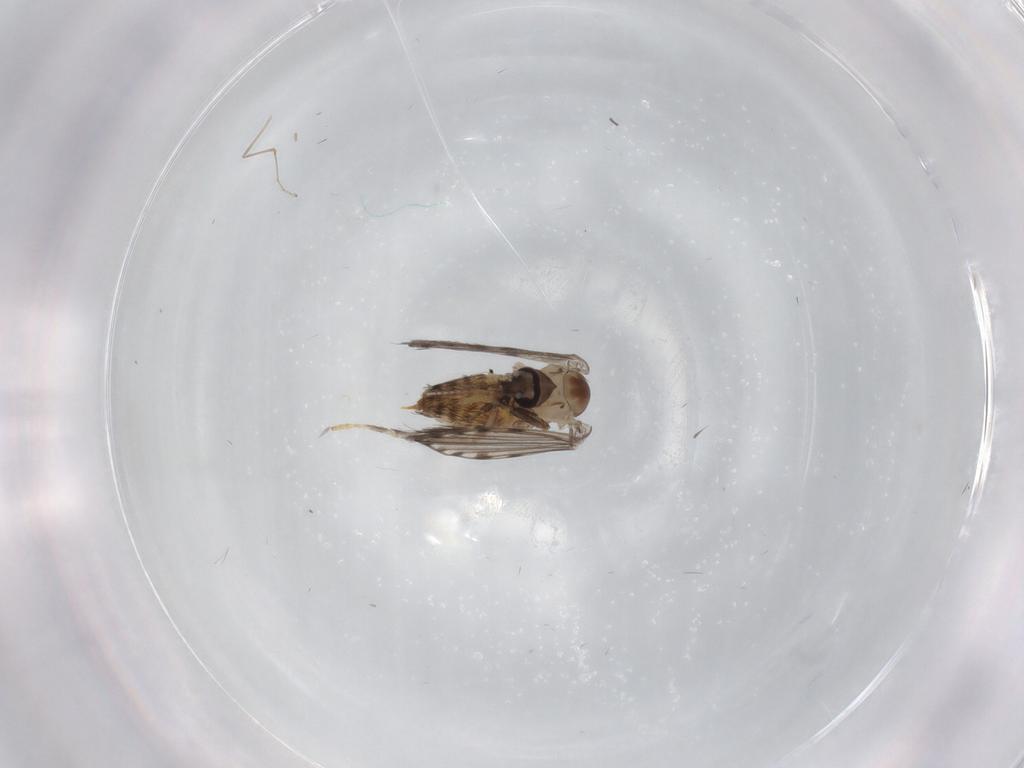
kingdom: Animalia
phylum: Arthropoda
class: Insecta
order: Diptera
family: Psychodidae
